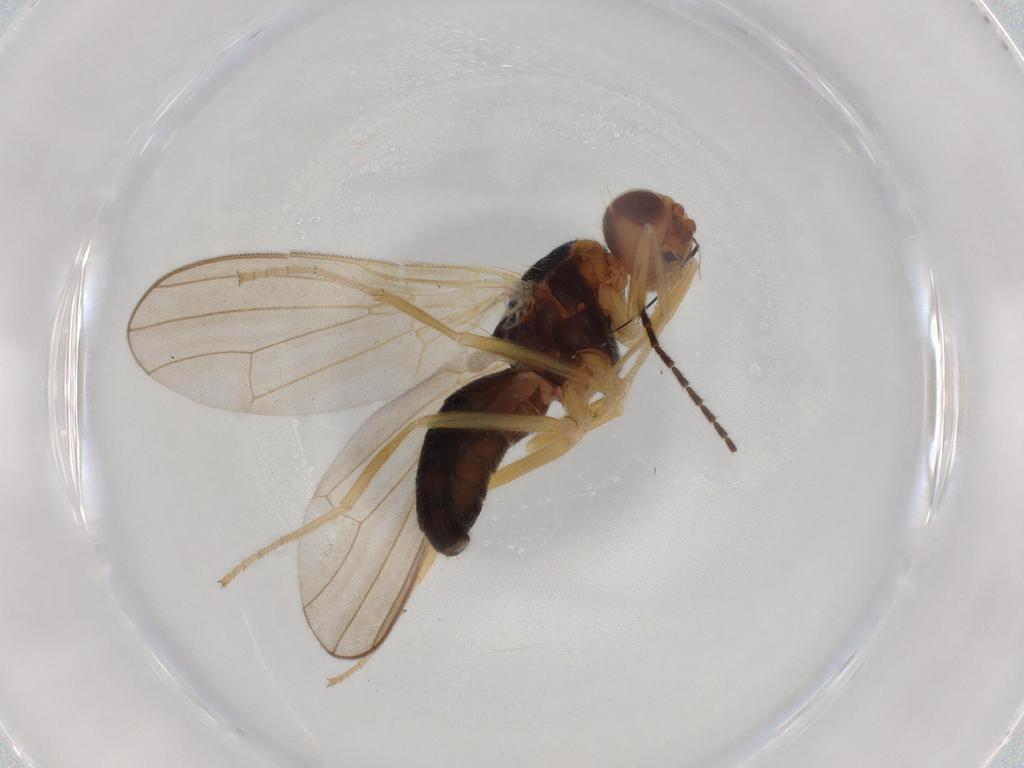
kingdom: Animalia
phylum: Arthropoda
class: Insecta
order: Diptera
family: Hybotidae
